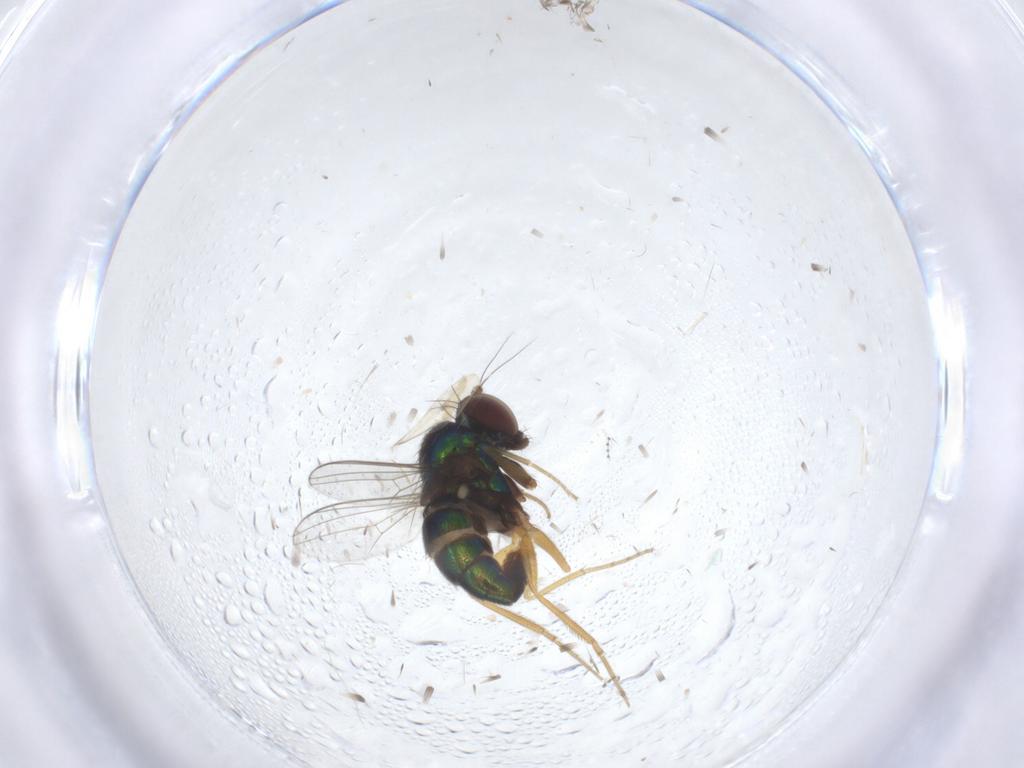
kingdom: Animalia
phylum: Arthropoda
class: Insecta
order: Diptera
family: Dolichopodidae
